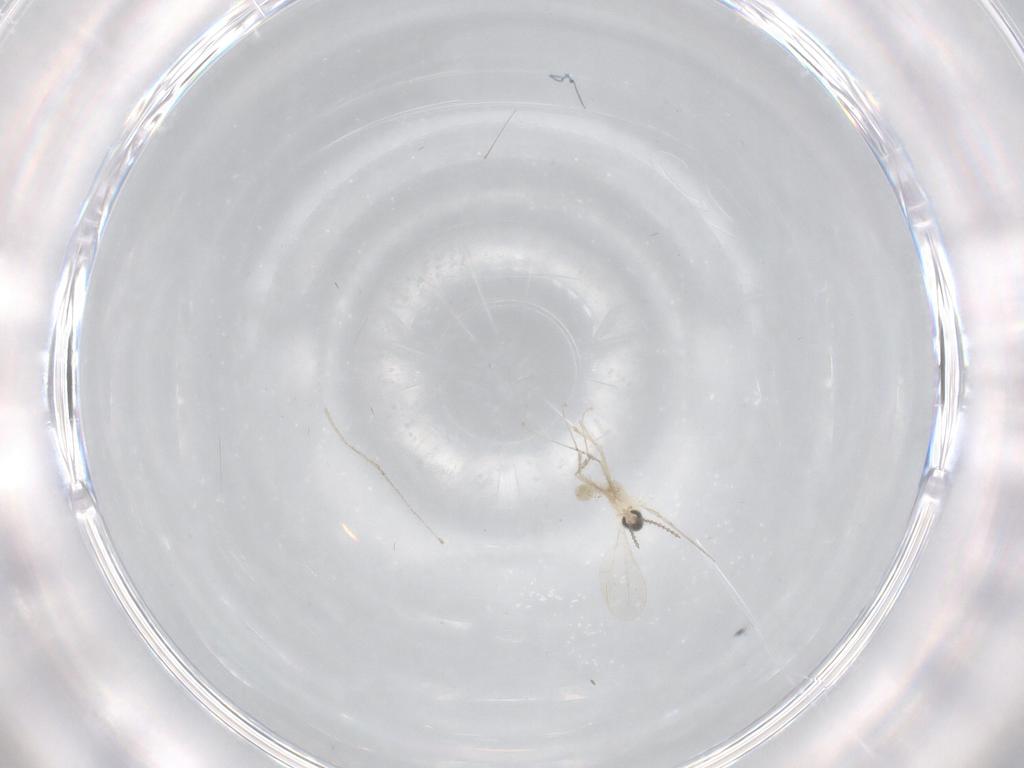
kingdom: Animalia
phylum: Arthropoda
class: Insecta
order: Diptera
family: Cecidomyiidae
